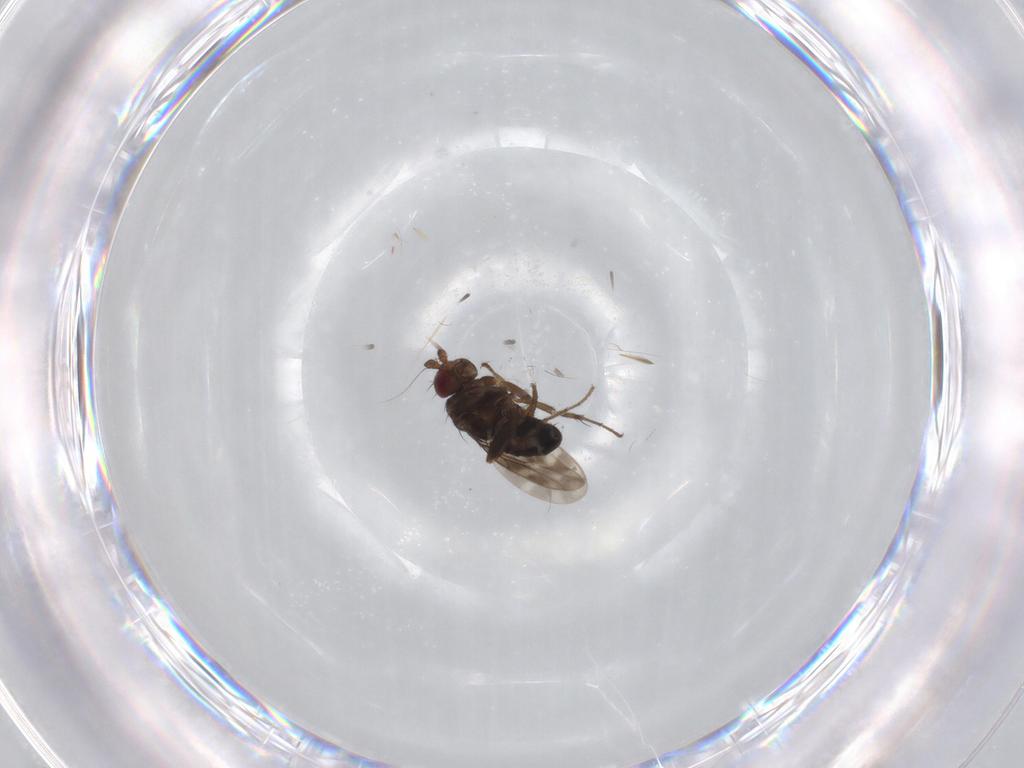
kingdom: Animalia
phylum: Arthropoda
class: Insecta
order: Diptera
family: Sphaeroceridae
